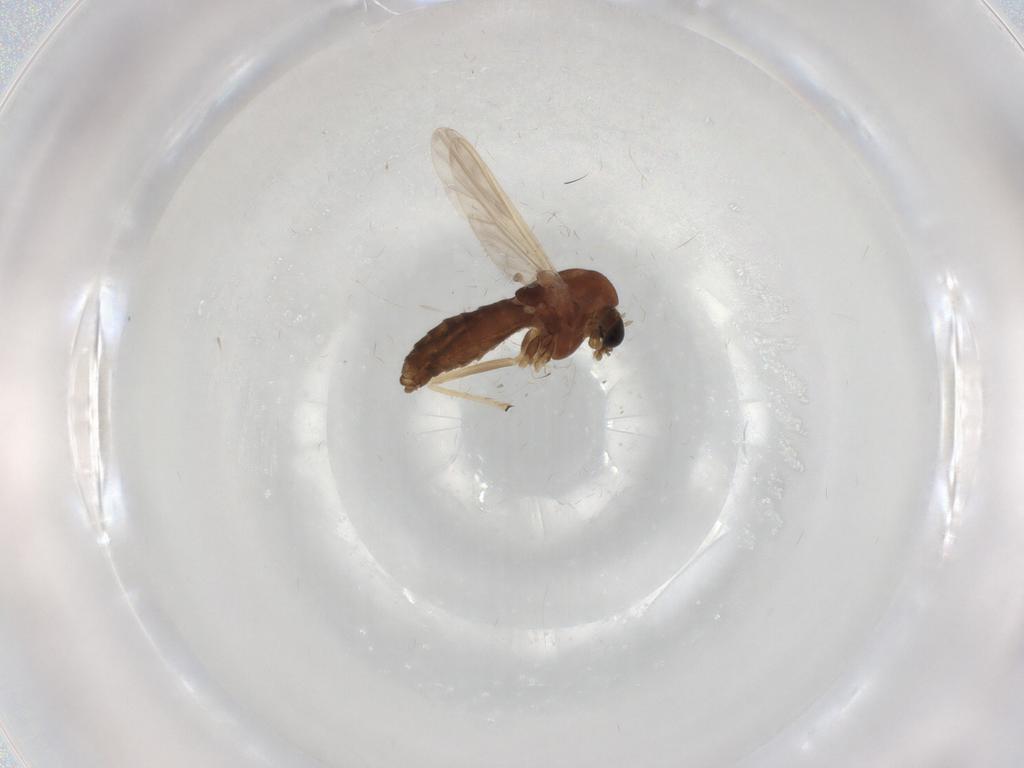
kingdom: Animalia
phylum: Arthropoda
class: Insecta
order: Diptera
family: Chironomidae
